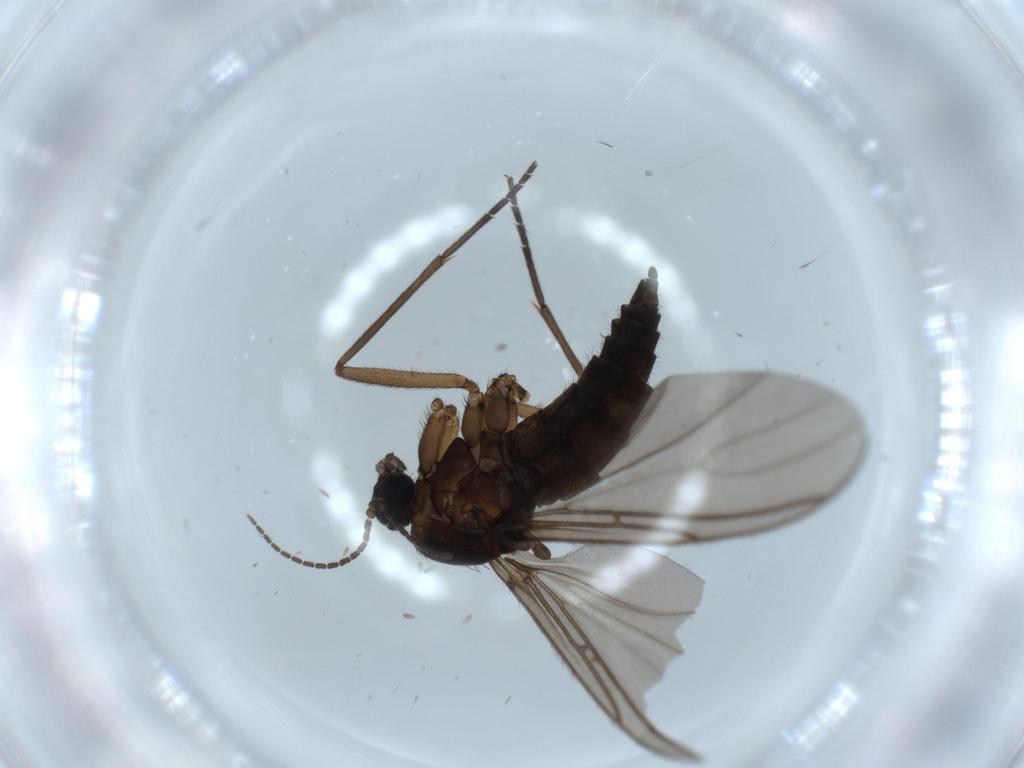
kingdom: Animalia
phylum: Arthropoda
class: Insecta
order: Diptera
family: Sciaridae
